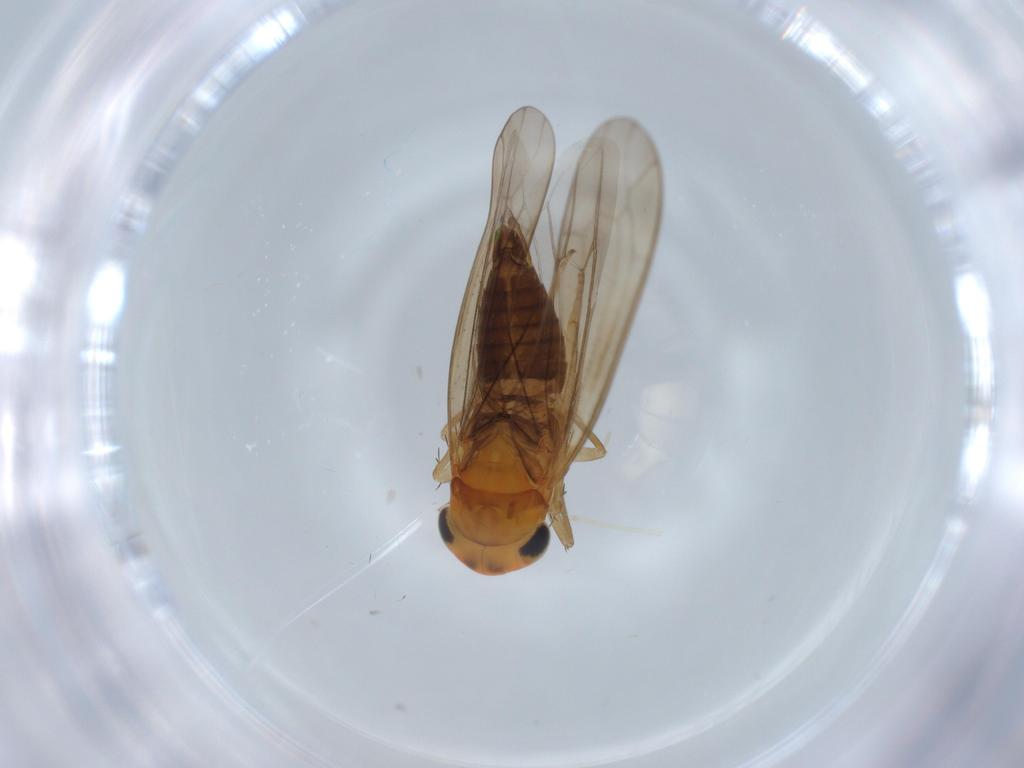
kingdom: Animalia
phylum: Arthropoda
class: Insecta
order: Hemiptera
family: Cicadellidae
